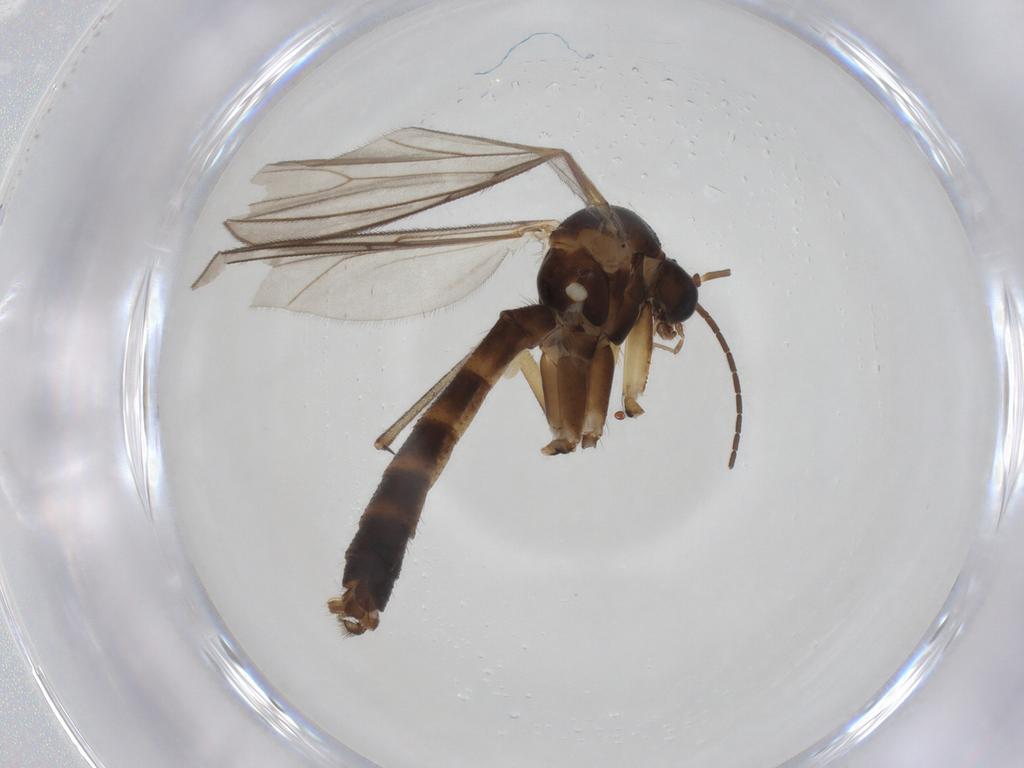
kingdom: Animalia
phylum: Arthropoda
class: Insecta
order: Diptera
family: Mycetophilidae
